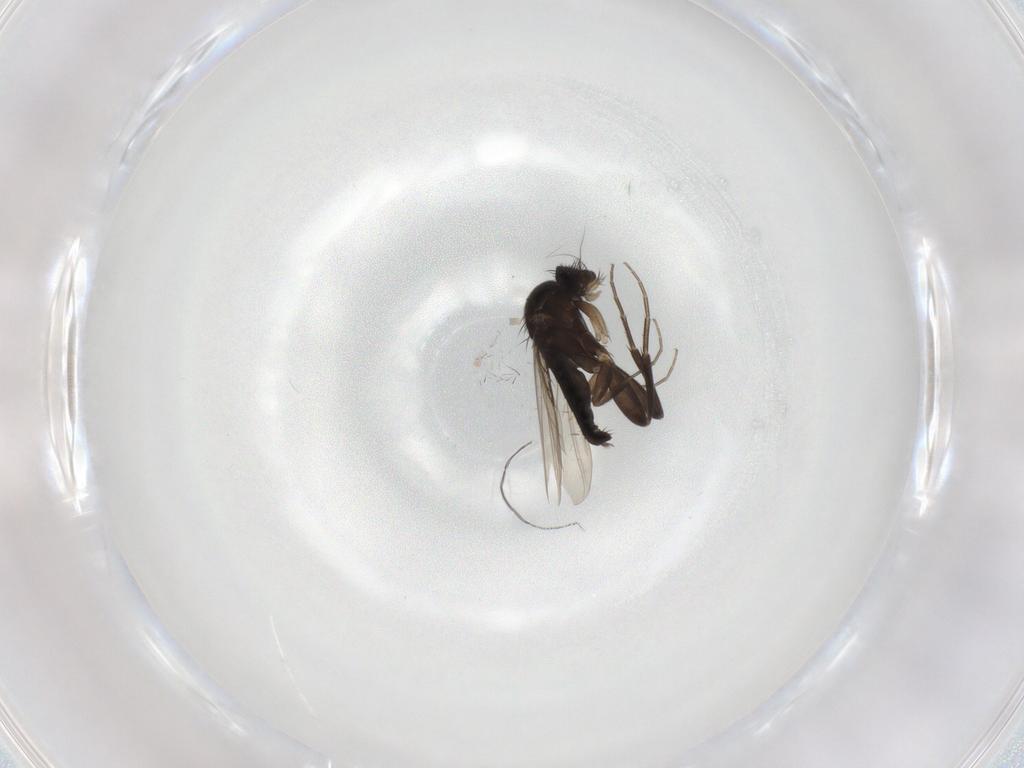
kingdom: Animalia
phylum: Arthropoda
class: Insecta
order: Diptera
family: Phoridae
